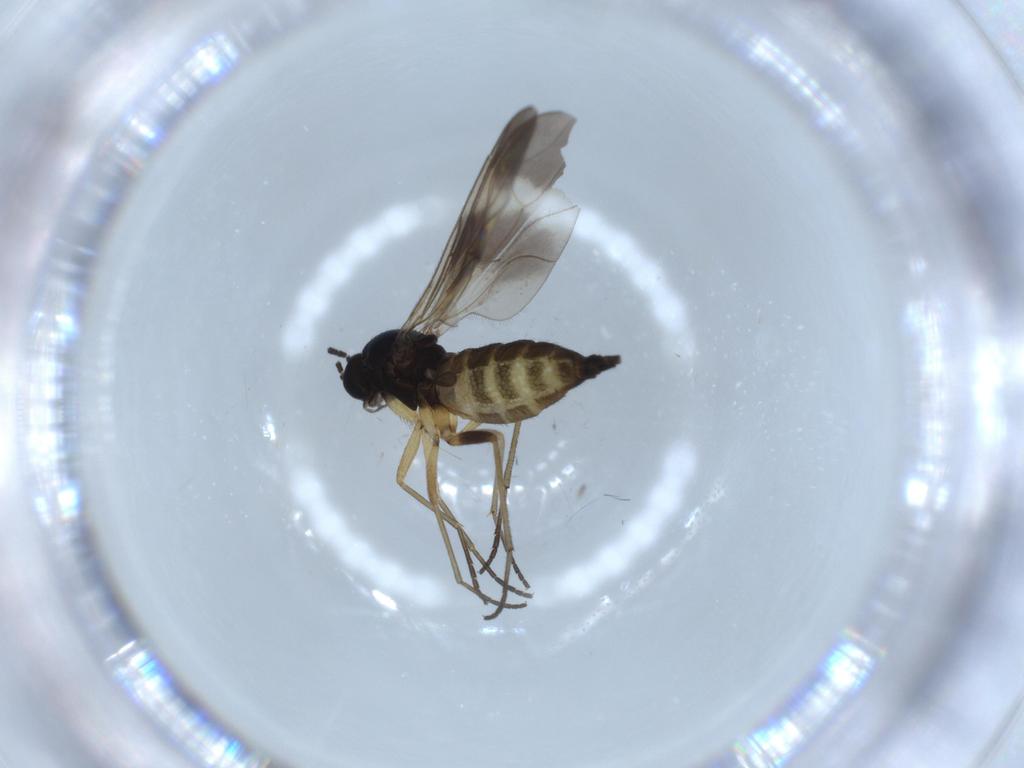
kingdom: Animalia
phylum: Arthropoda
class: Insecta
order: Diptera
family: Sciaridae
